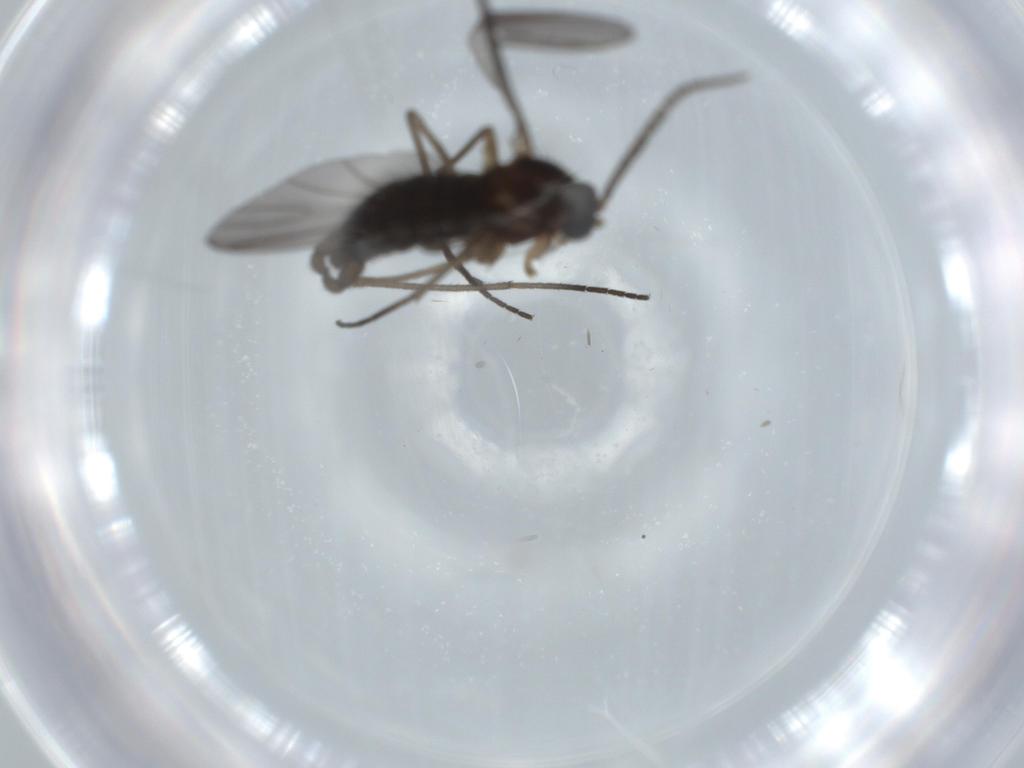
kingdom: Animalia
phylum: Arthropoda
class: Insecta
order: Diptera
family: Sciaridae
